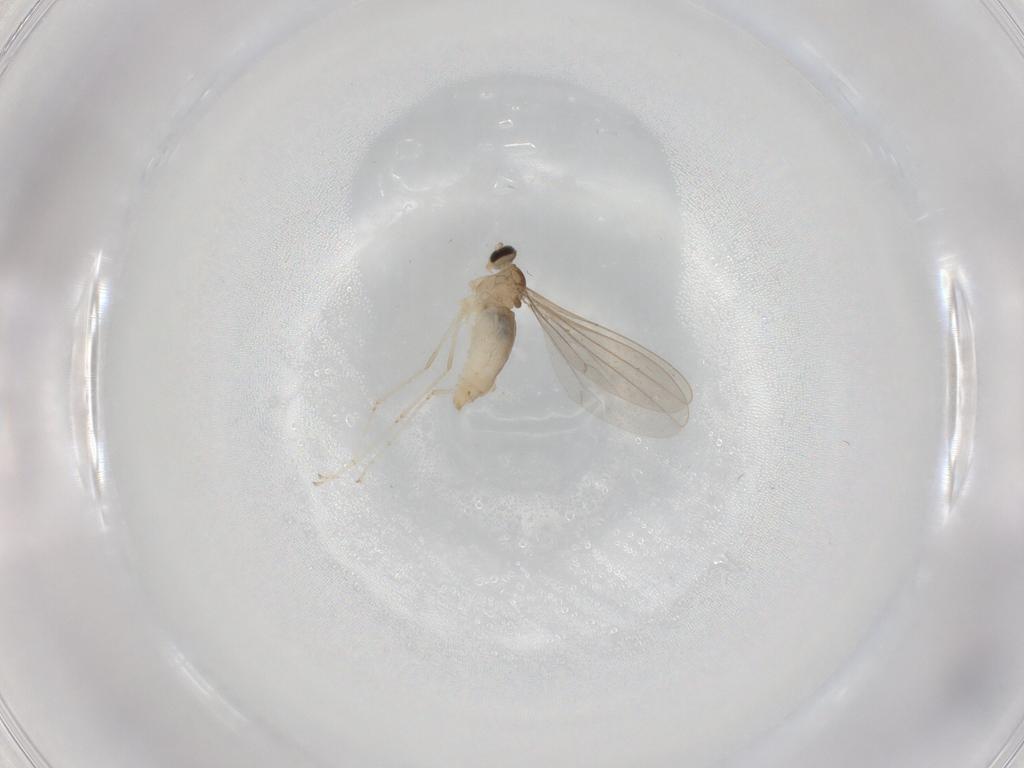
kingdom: Animalia
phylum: Arthropoda
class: Insecta
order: Diptera
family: Cecidomyiidae
